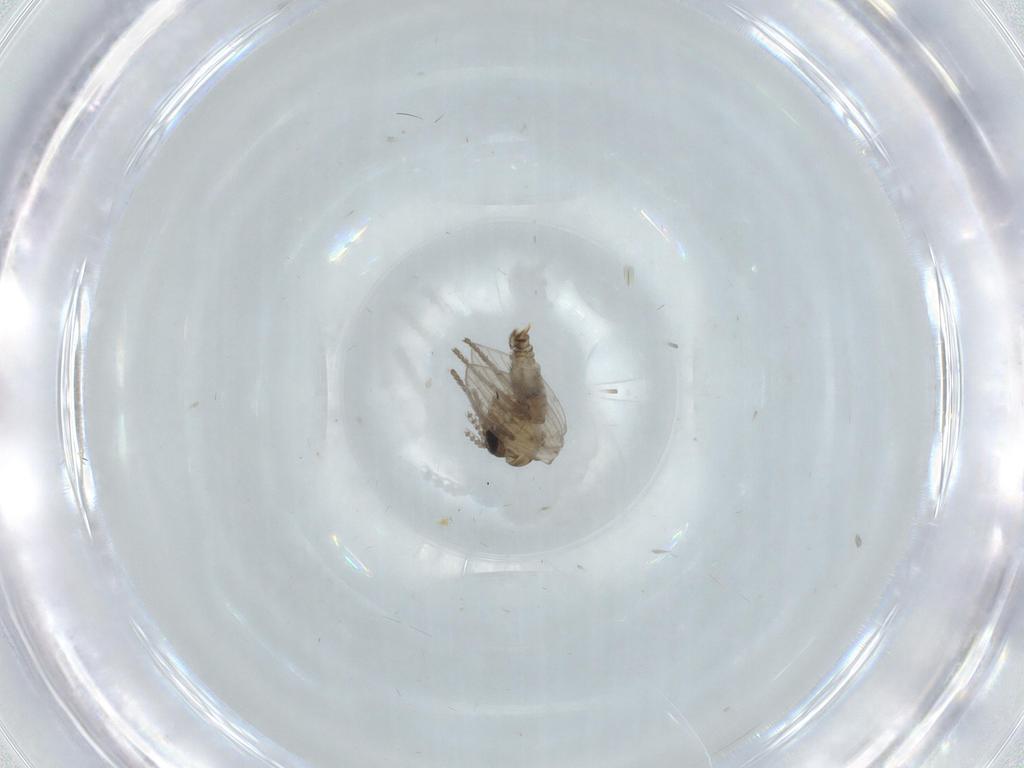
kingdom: Animalia
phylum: Arthropoda
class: Insecta
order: Diptera
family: Psychodidae
